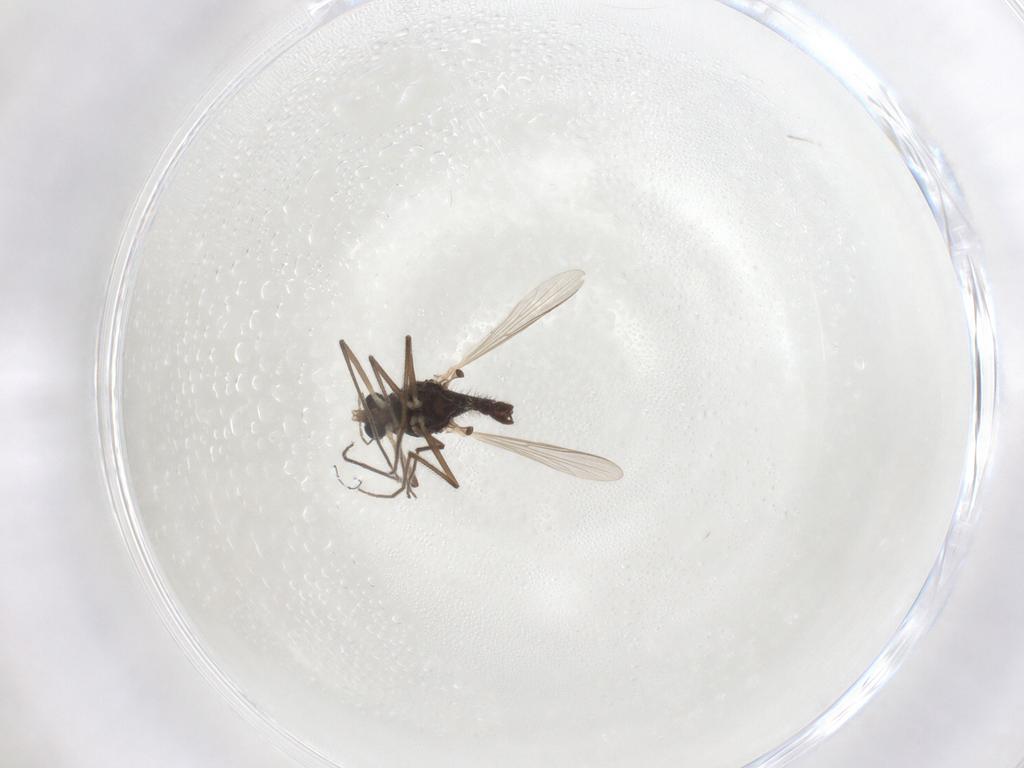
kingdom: Animalia
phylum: Arthropoda
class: Insecta
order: Diptera
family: Chironomidae
